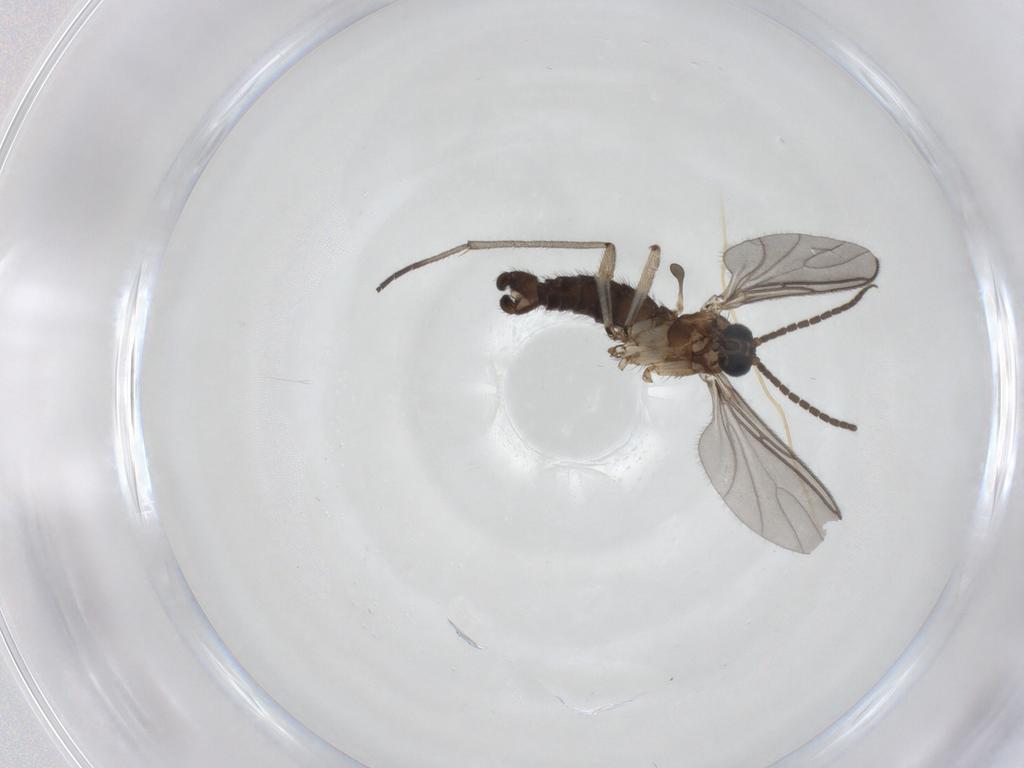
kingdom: Animalia
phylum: Arthropoda
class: Insecta
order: Diptera
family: Sciaridae
